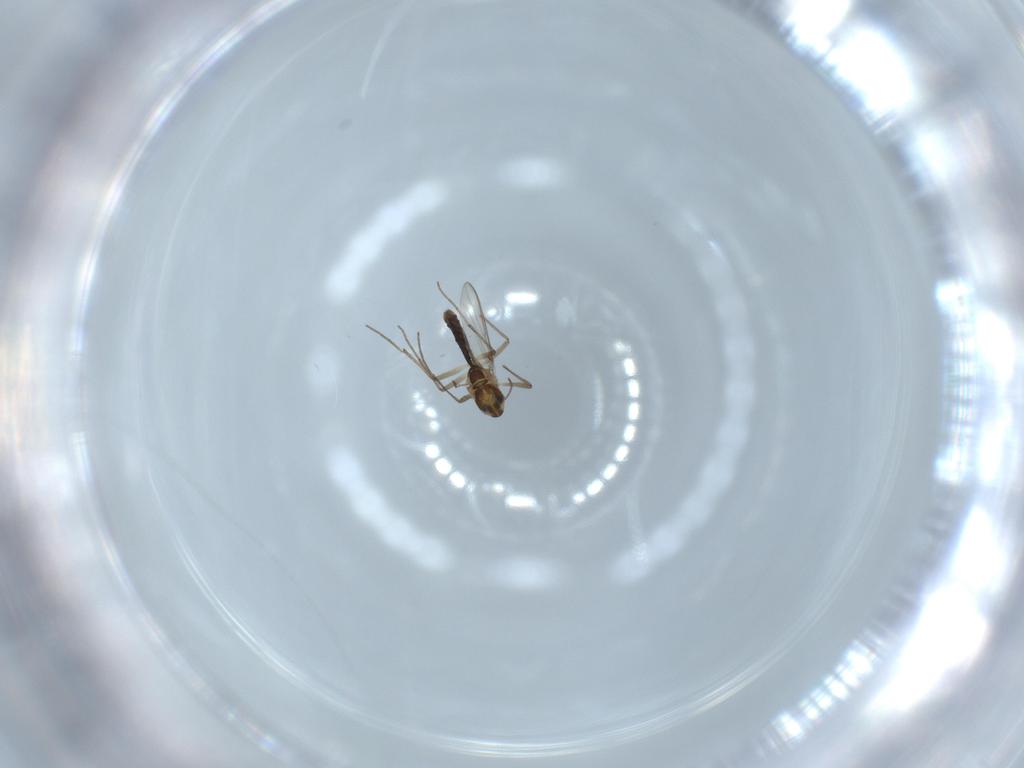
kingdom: Animalia
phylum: Arthropoda
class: Insecta
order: Diptera
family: Chironomidae
